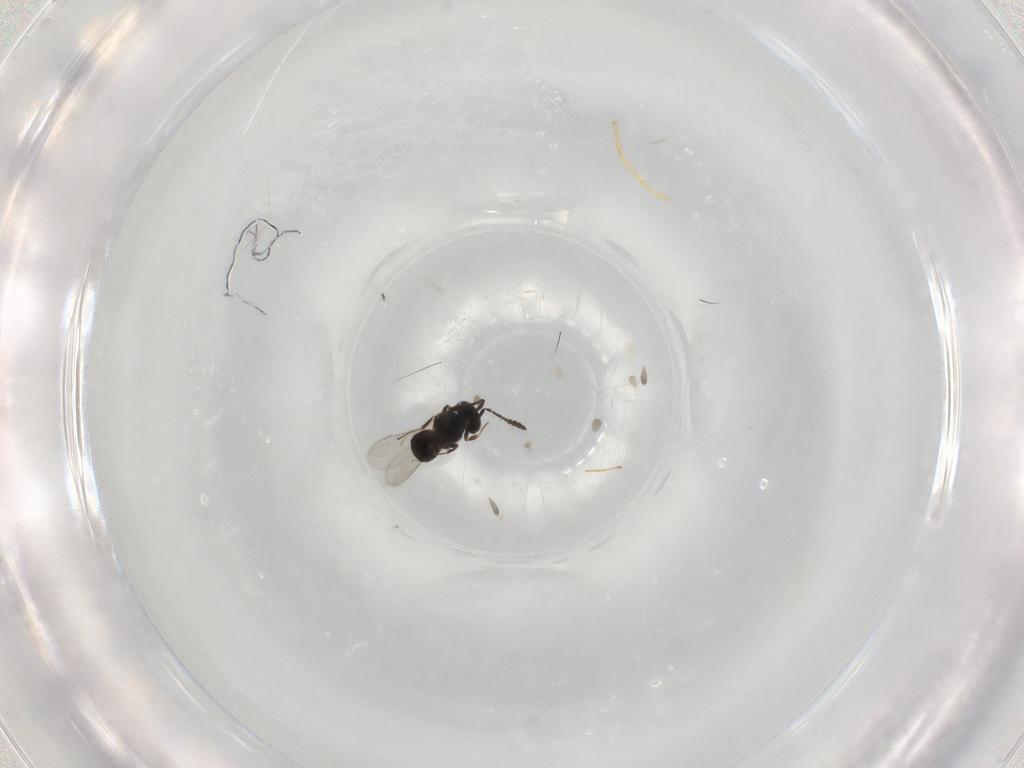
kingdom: Animalia
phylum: Arthropoda
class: Insecta
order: Hymenoptera
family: Scelionidae
